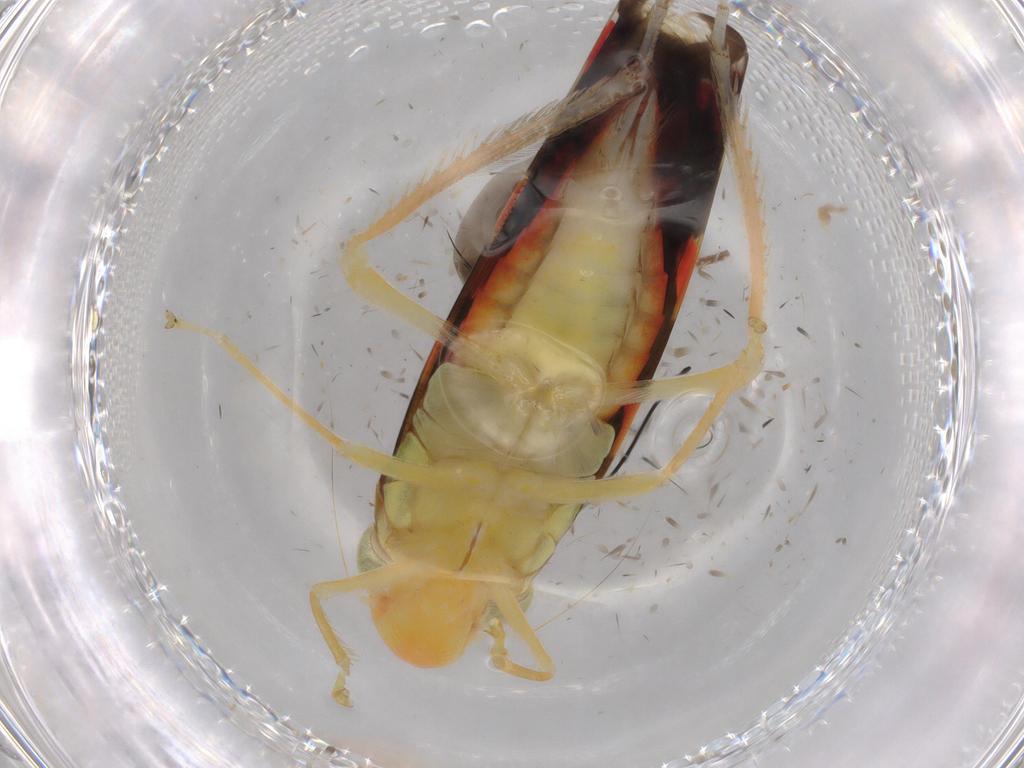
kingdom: Animalia
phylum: Arthropoda
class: Insecta
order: Hemiptera
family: Cicadellidae
